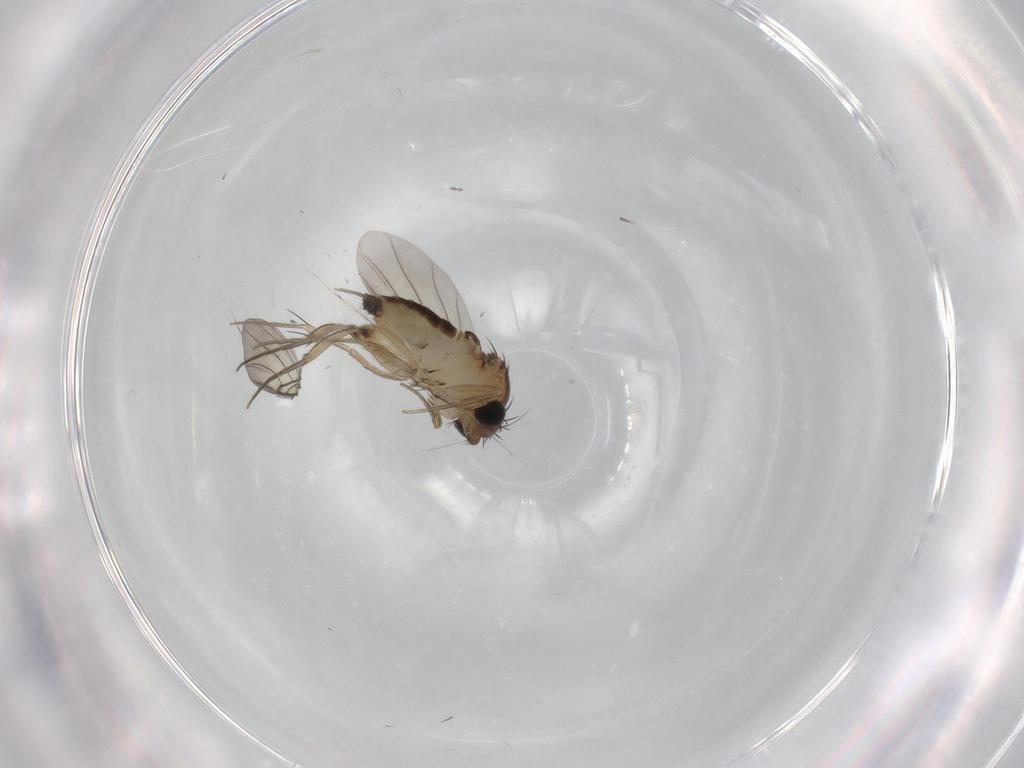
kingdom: Animalia
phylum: Arthropoda
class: Insecta
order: Diptera
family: Phoridae
